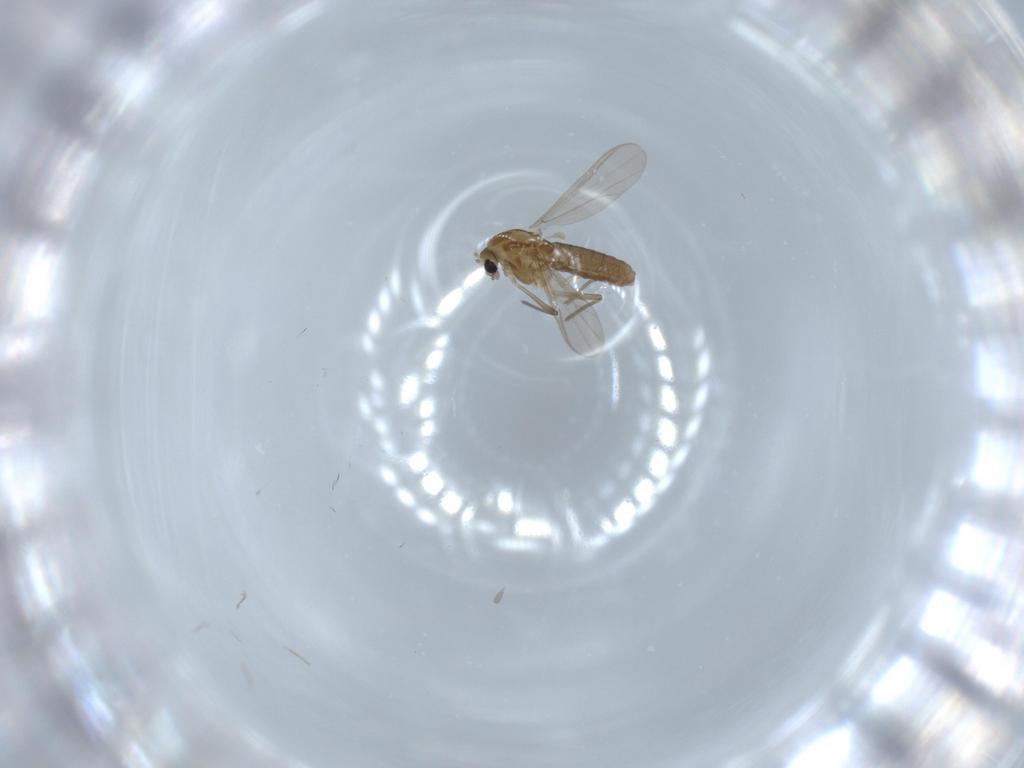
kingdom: Animalia
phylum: Arthropoda
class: Insecta
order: Diptera
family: Chironomidae
